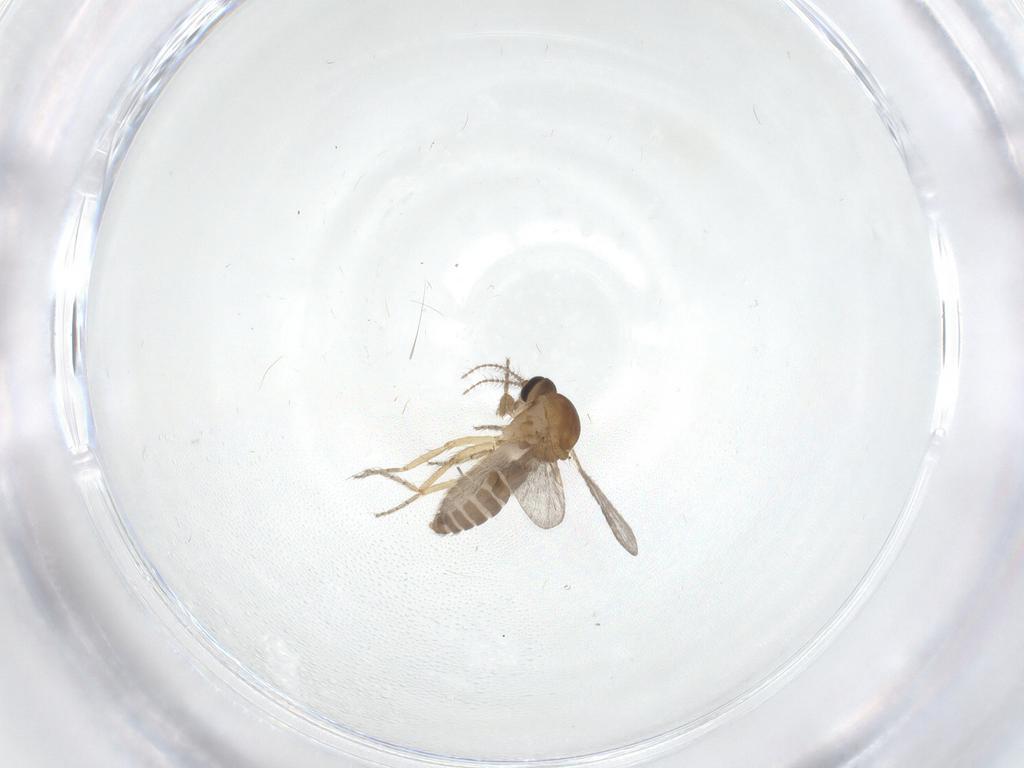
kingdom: Animalia
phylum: Arthropoda
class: Insecta
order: Diptera
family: Ceratopogonidae
